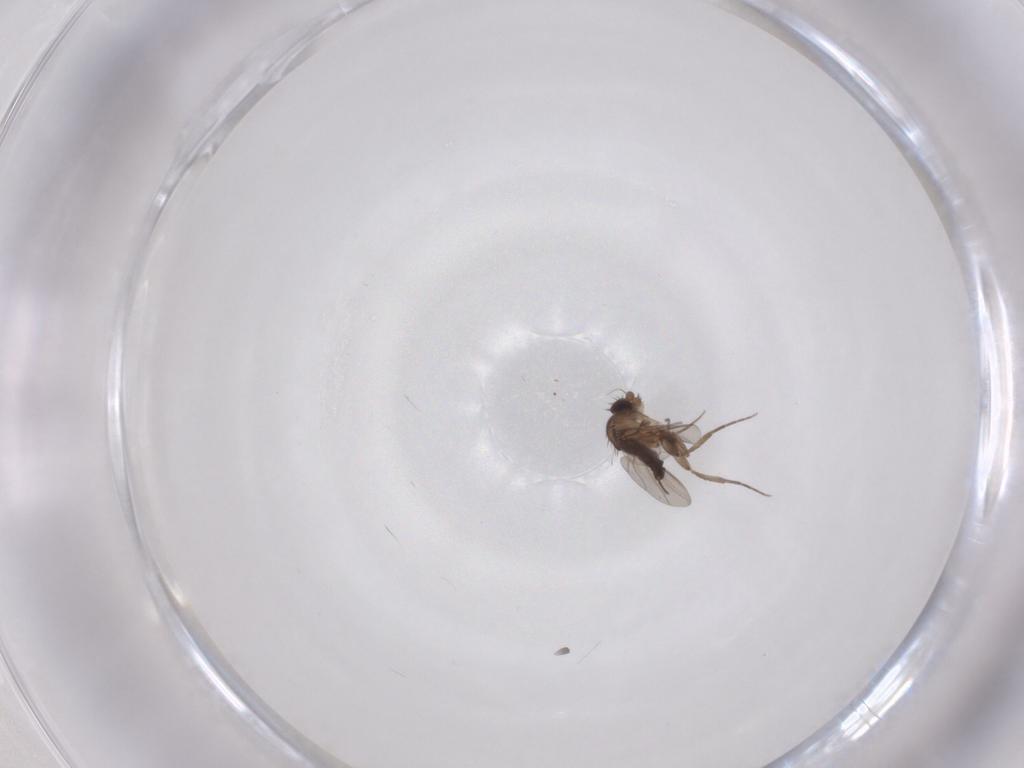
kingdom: Animalia
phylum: Arthropoda
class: Insecta
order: Diptera
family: Phoridae
